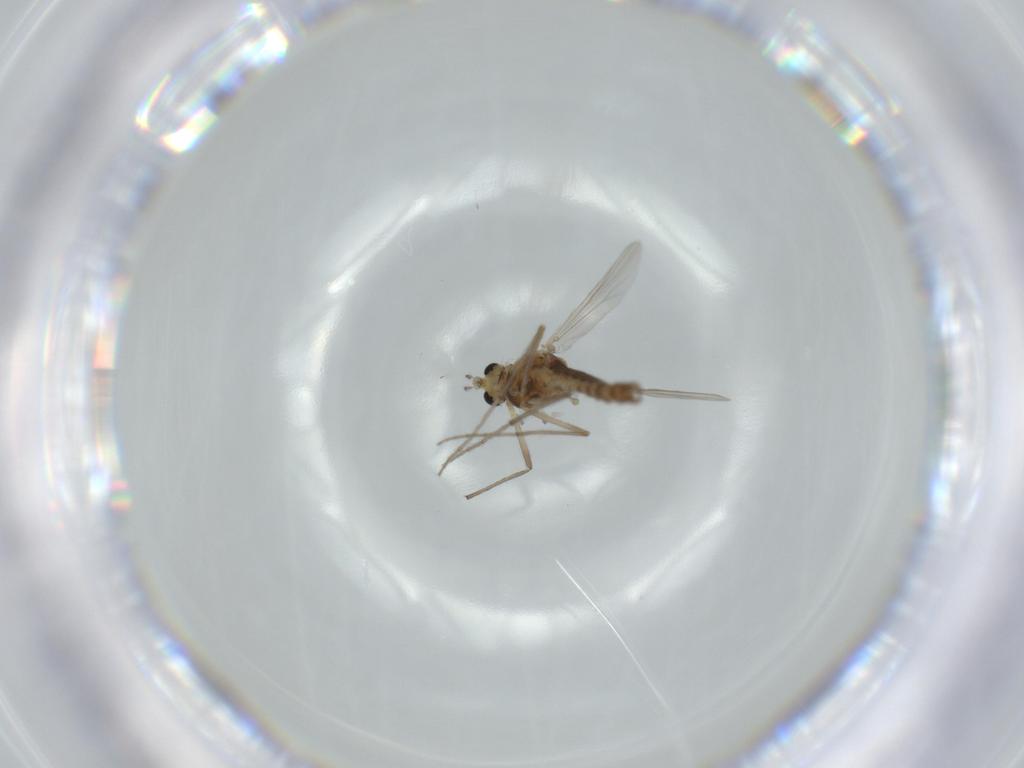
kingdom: Animalia
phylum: Arthropoda
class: Insecta
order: Diptera
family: Chironomidae
